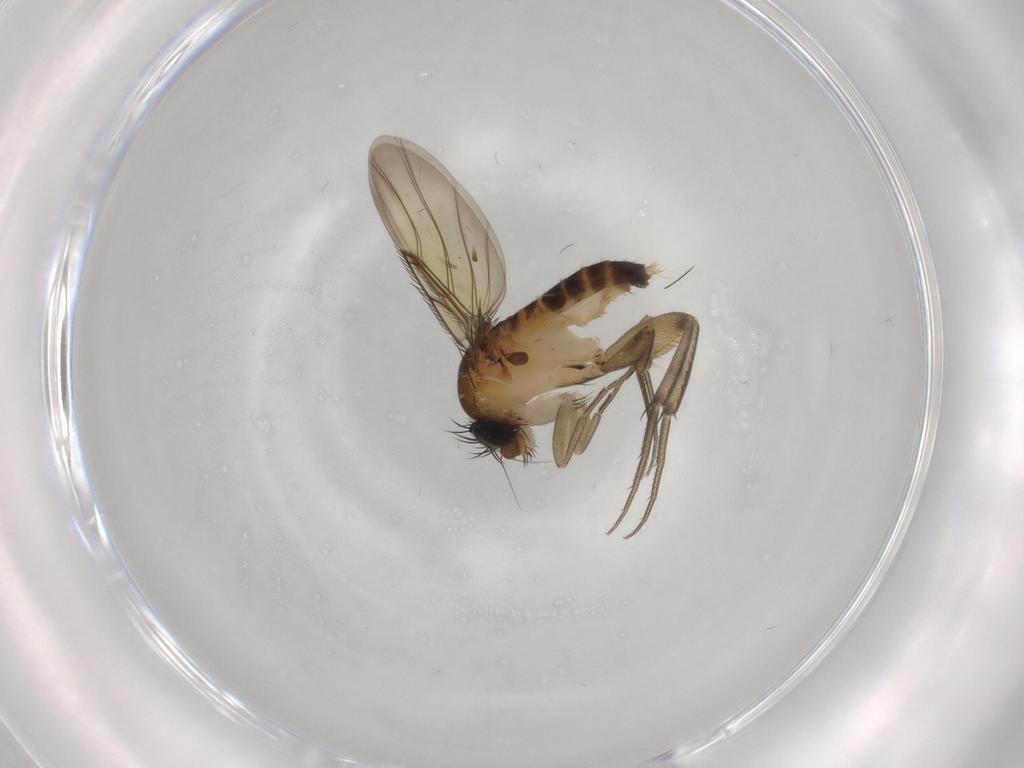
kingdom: Animalia
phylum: Arthropoda
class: Insecta
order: Diptera
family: Phoridae
